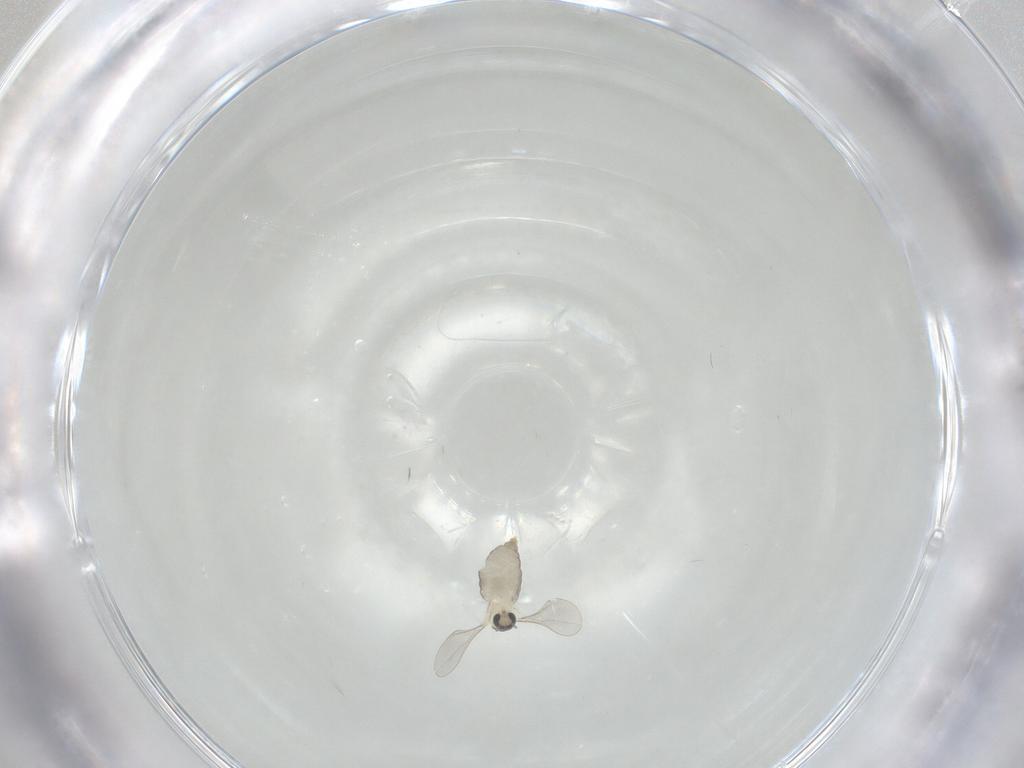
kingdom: Animalia
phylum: Arthropoda
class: Insecta
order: Diptera
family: Cecidomyiidae
